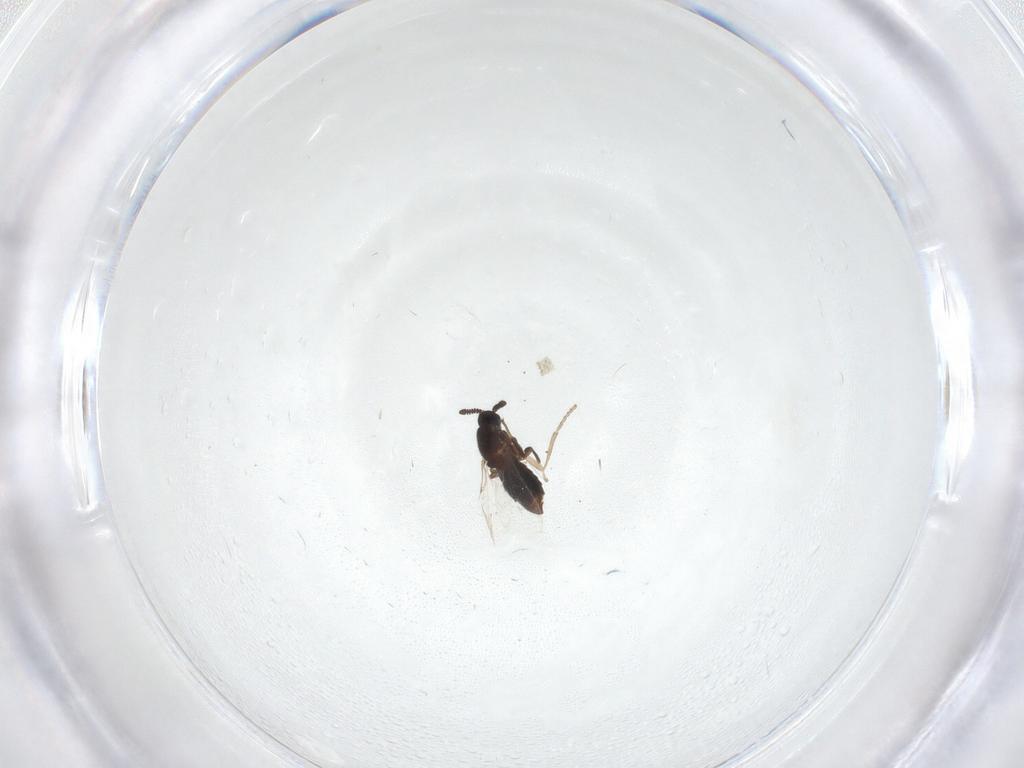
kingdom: Animalia
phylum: Arthropoda
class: Insecta
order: Diptera
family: Scatopsidae
